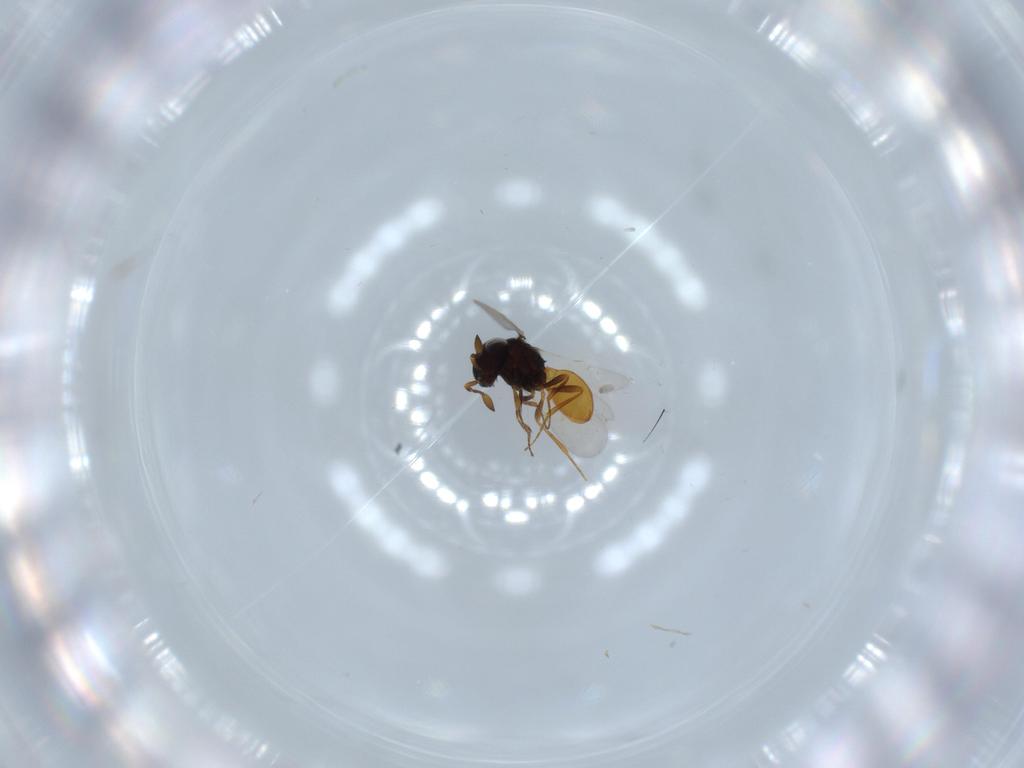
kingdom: Animalia
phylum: Arthropoda
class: Insecta
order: Hymenoptera
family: Scelionidae
